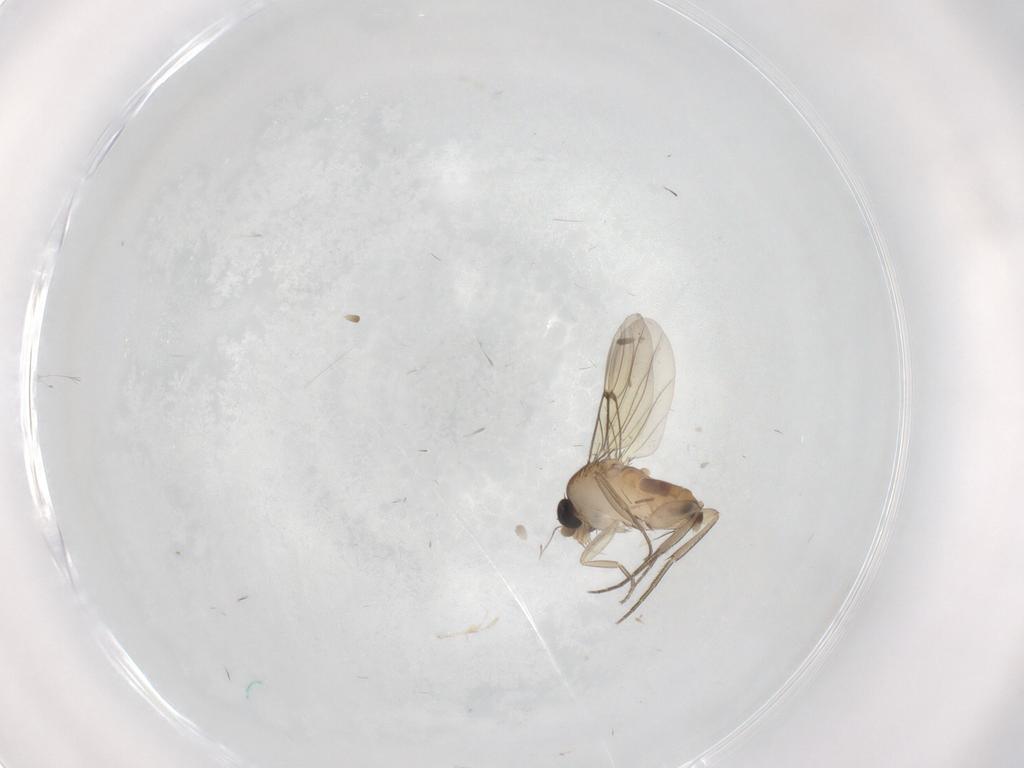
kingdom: Animalia
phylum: Arthropoda
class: Insecta
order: Diptera
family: Phoridae
